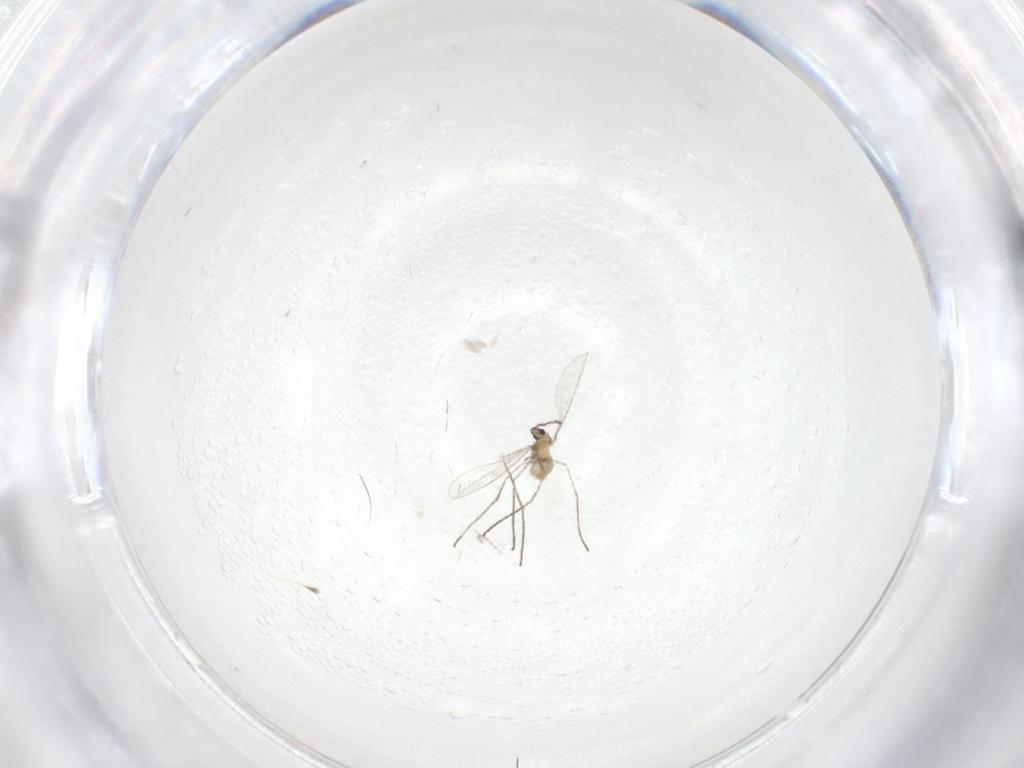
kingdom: Animalia
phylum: Arthropoda
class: Insecta
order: Diptera
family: Cecidomyiidae
